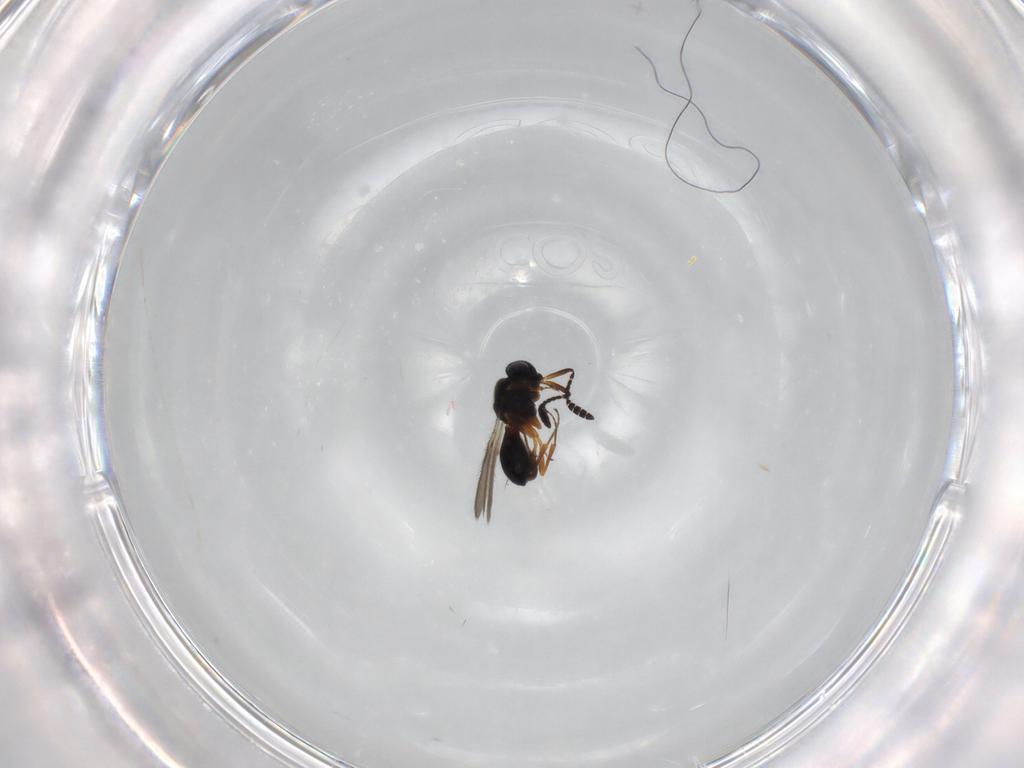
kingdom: Animalia
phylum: Arthropoda
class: Insecta
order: Hymenoptera
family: Scelionidae
